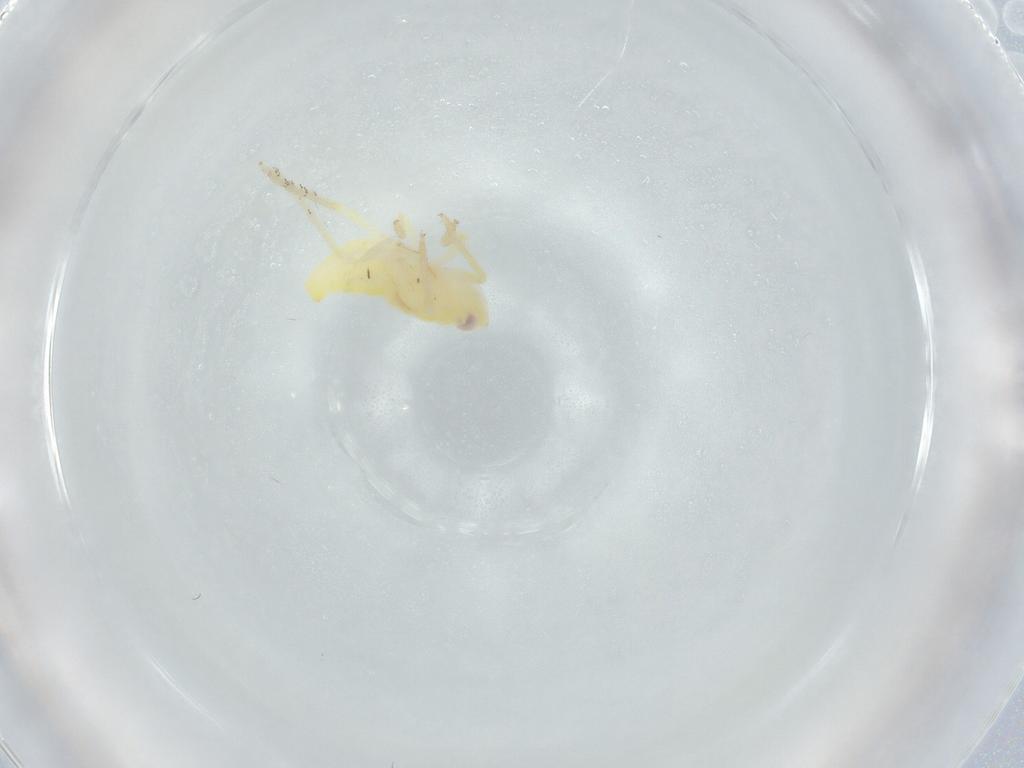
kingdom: Animalia
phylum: Arthropoda
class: Insecta
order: Hemiptera
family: Tropiduchidae
